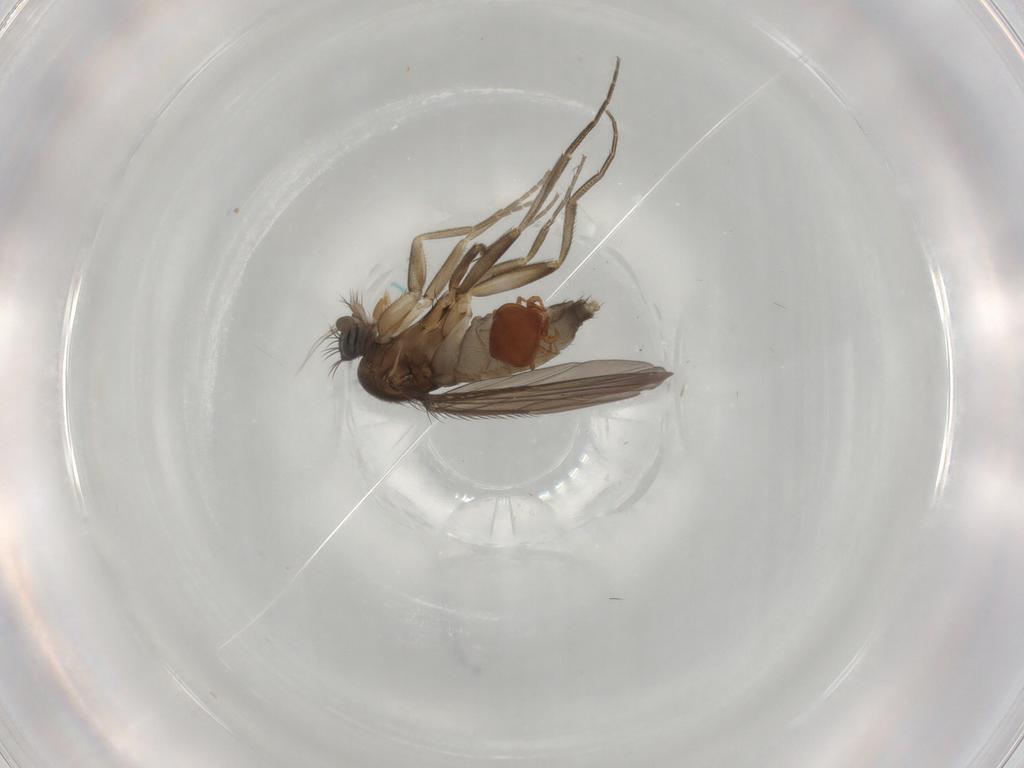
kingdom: Animalia
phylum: Arthropoda
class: Insecta
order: Diptera
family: Phoridae
